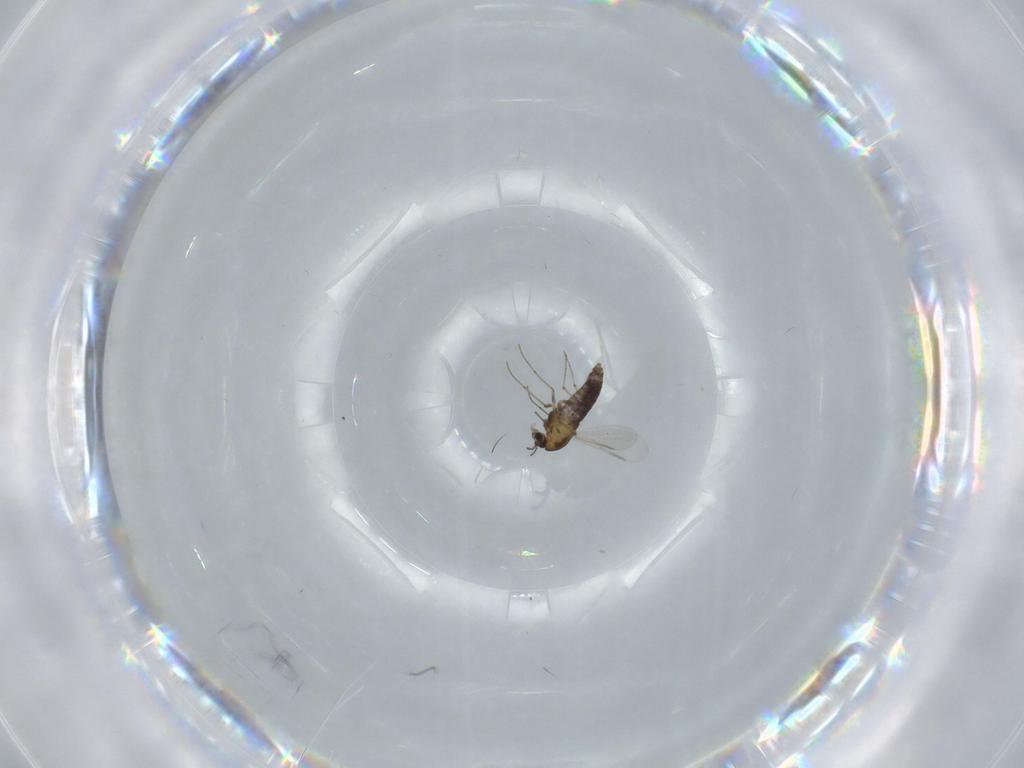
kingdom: Animalia
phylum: Arthropoda
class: Insecta
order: Diptera
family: Chironomidae
